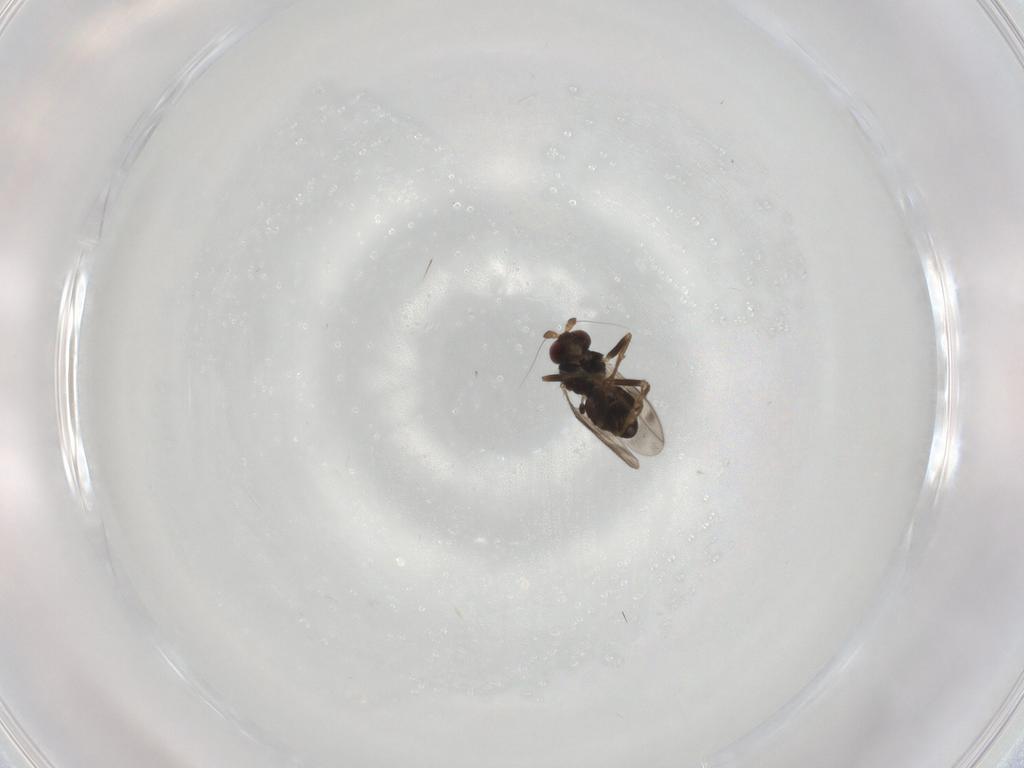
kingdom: Animalia
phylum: Arthropoda
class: Insecta
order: Diptera
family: Sphaeroceridae
